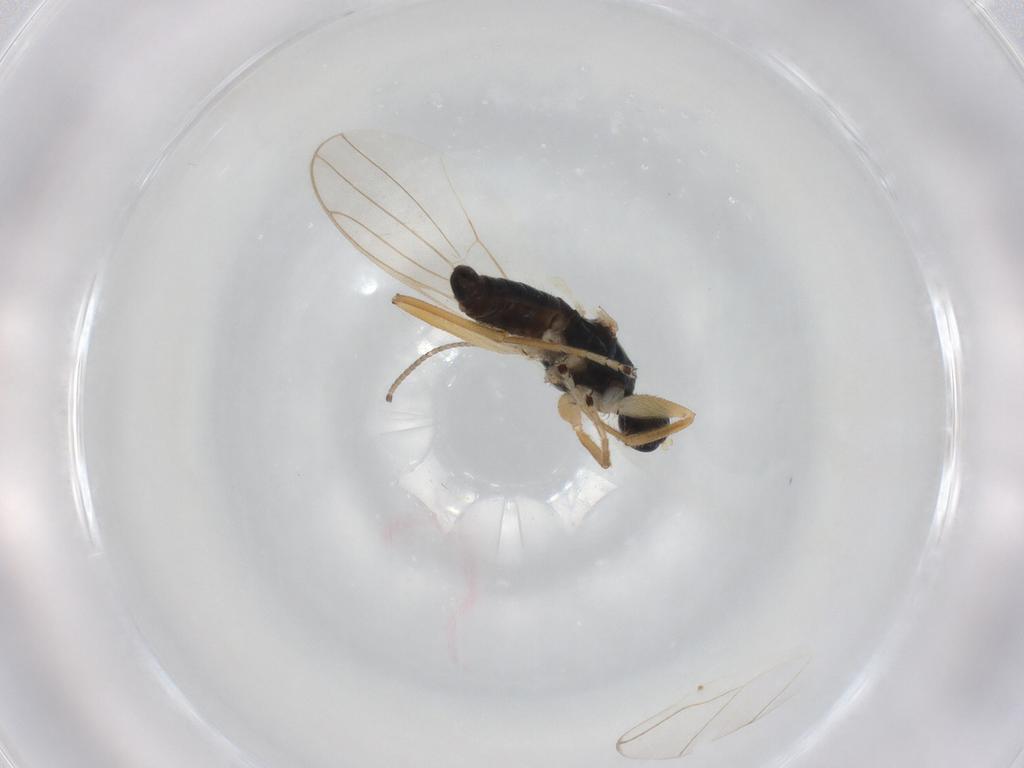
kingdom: Animalia
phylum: Arthropoda
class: Insecta
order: Diptera
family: Hybotidae
